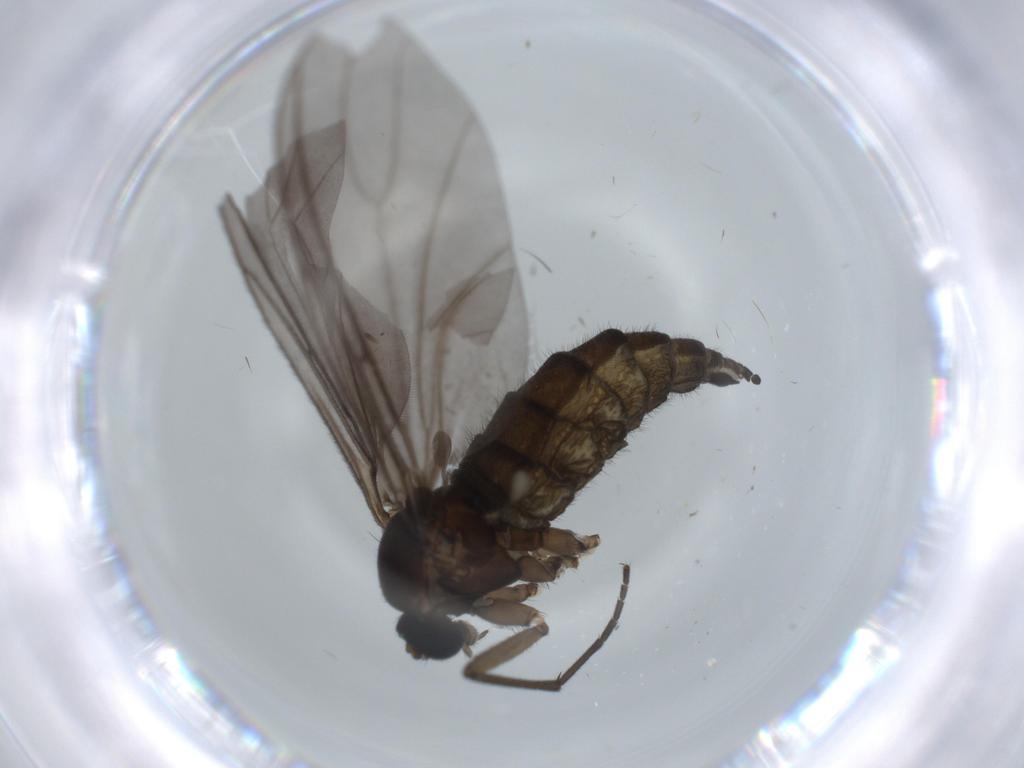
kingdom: Animalia
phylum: Arthropoda
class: Insecta
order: Diptera
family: Sciaridae
